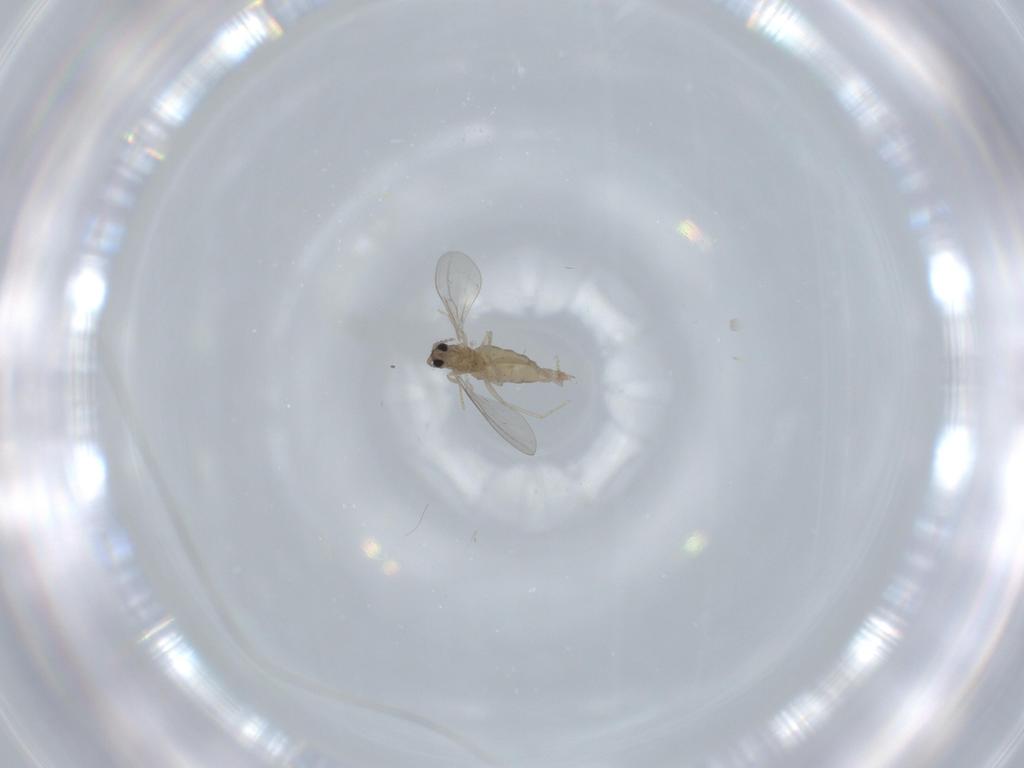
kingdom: Animalia
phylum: Arthropoda
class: Insecta
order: Diptera
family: Cecidomyiidae
